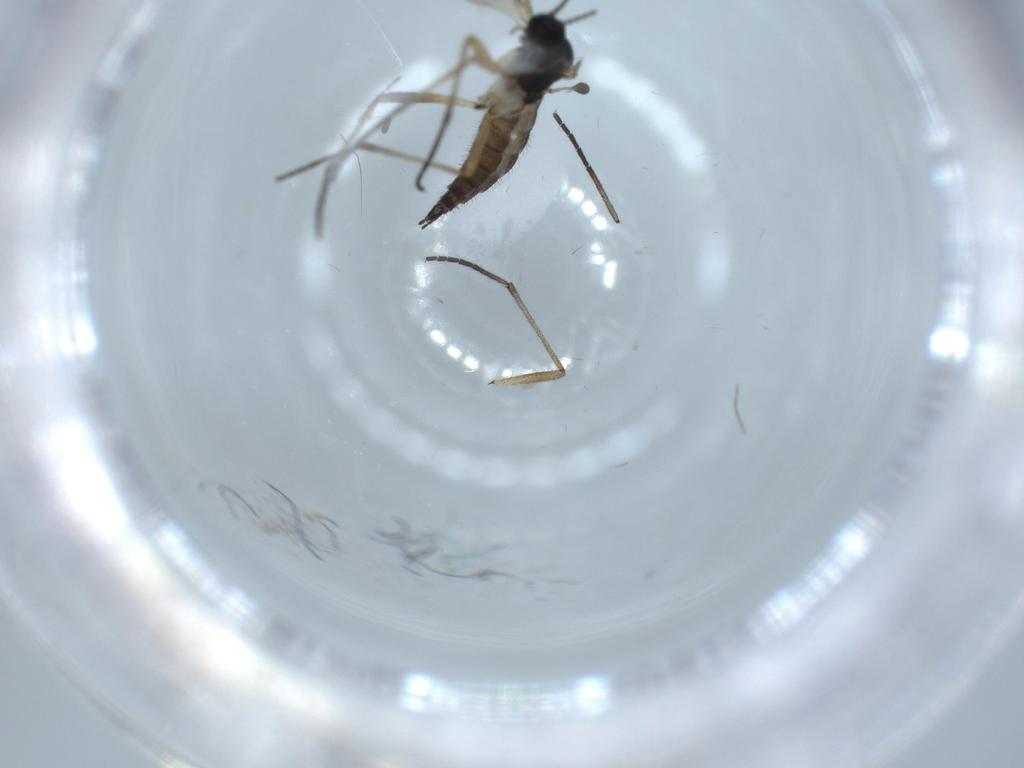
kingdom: Animalia
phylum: Arthropoda
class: Insecta
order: Diptera
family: Sciaridae
